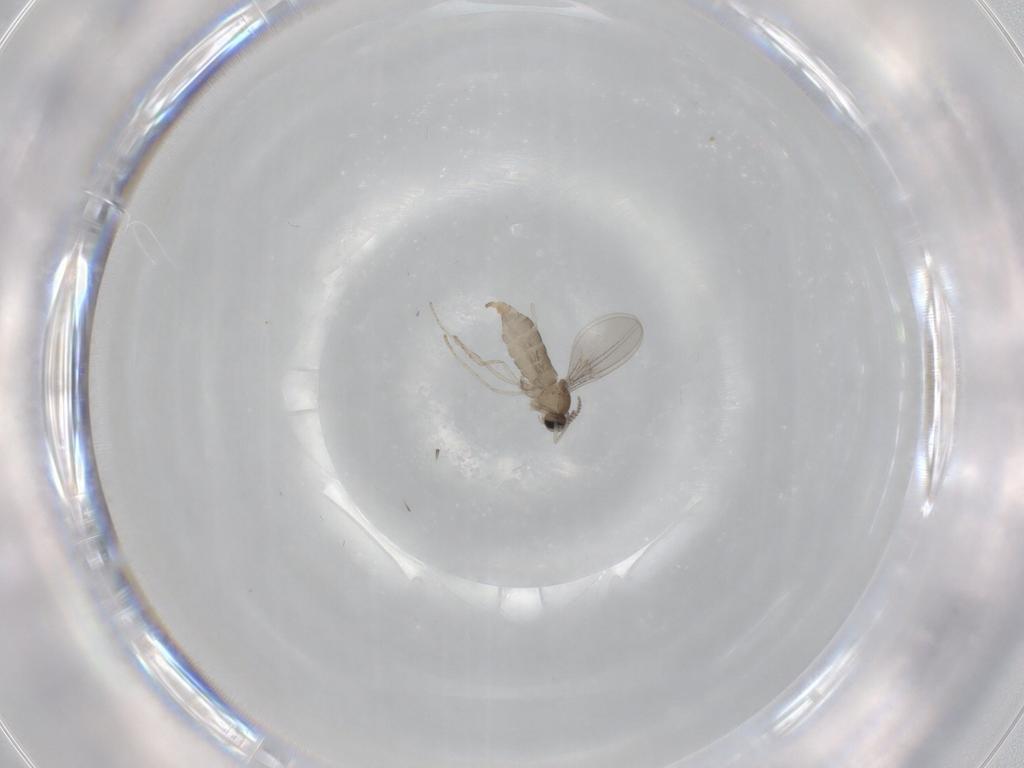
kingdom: Animalia
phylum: Arthropoda
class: Insecta
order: Diptera
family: Cecidomyiidae
